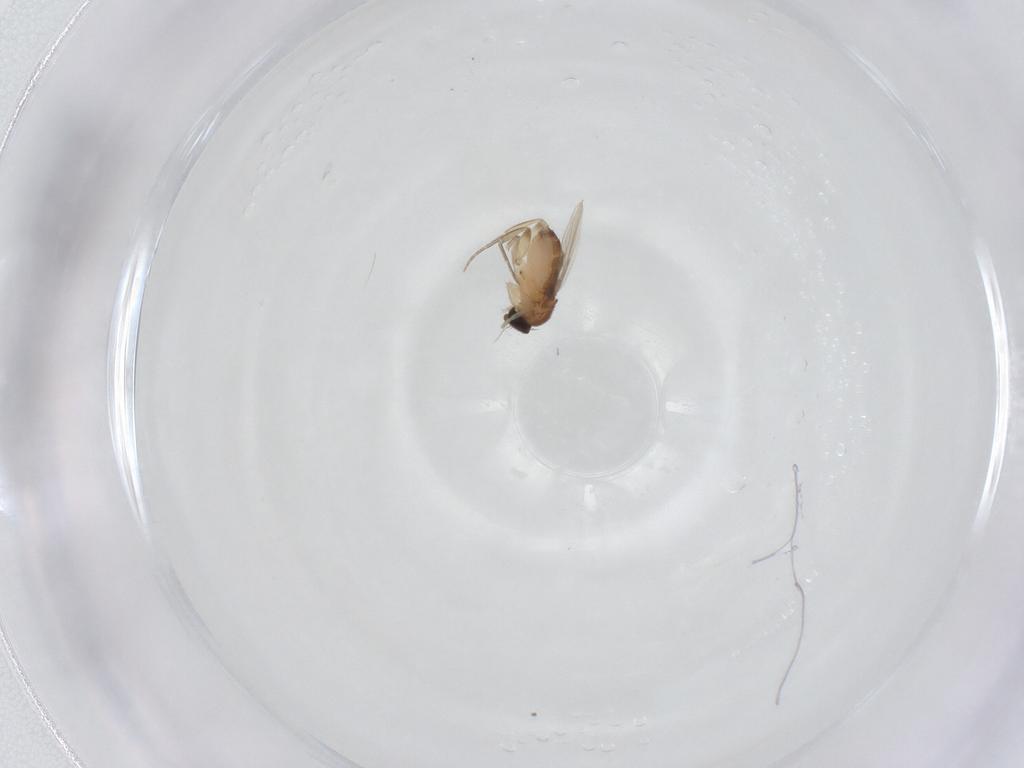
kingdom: Animalia
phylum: Arthropoda
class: Insecta
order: Diptera
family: Phoridae
